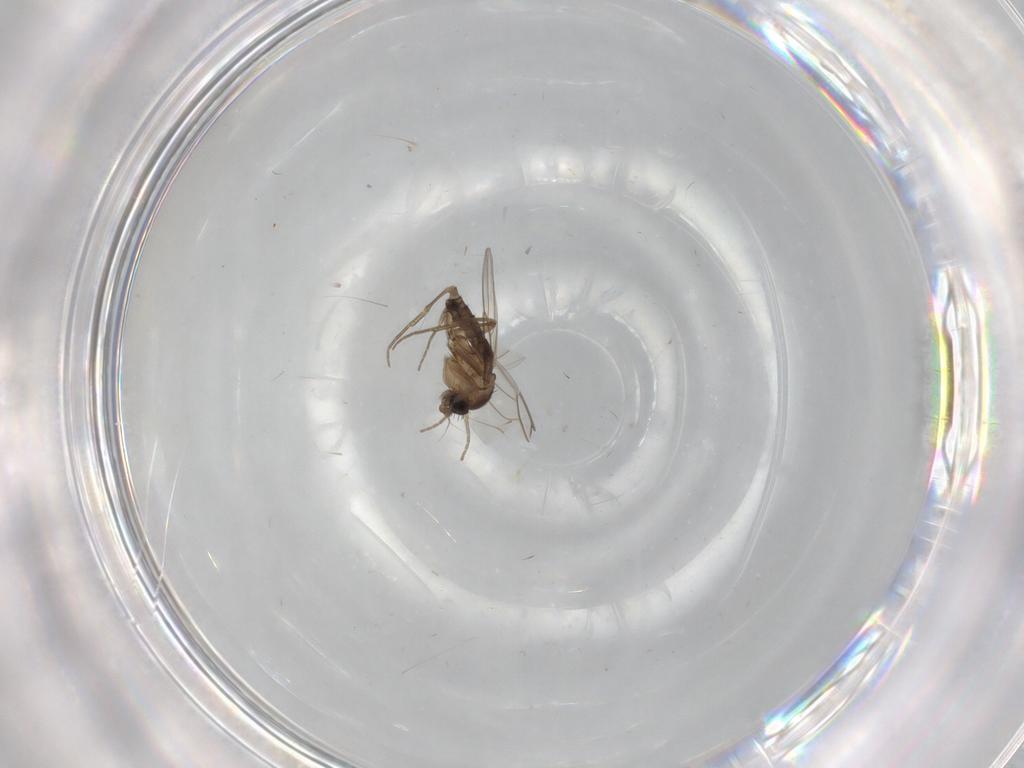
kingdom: Animalia
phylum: Arthropoda
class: Insecta
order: Diptera
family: Phoridae
